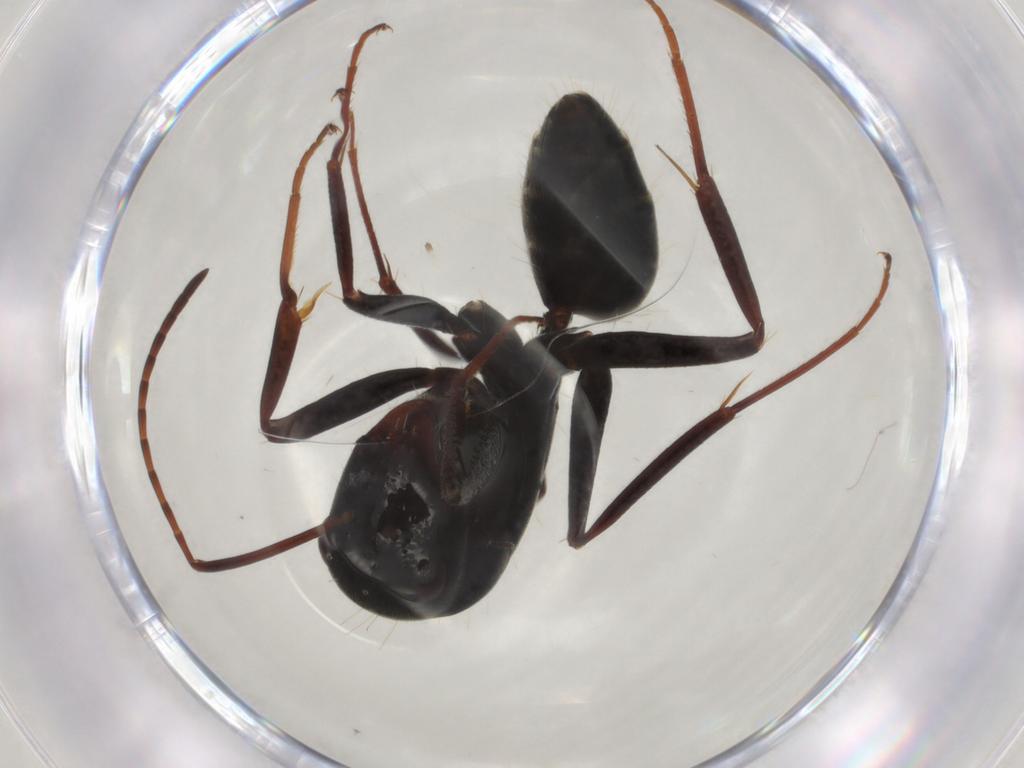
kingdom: Animalia
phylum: Arthropoda
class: Insecta
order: Hymenoptera
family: Formicidae
